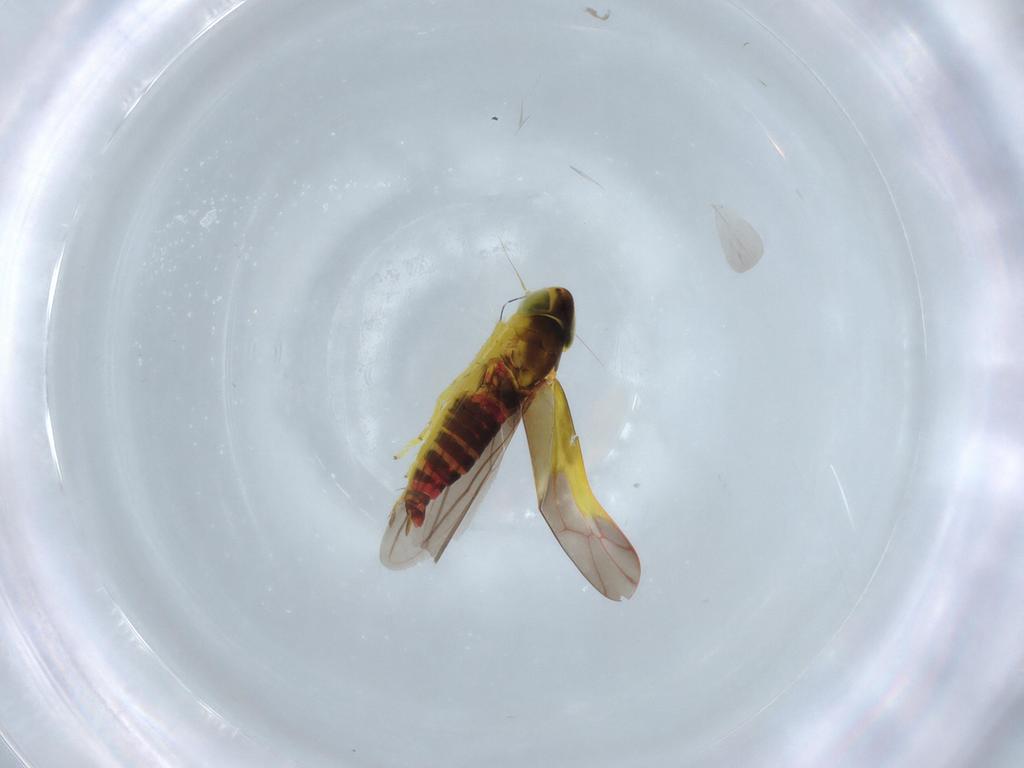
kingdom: Animalia
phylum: Arthropoda
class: Insecta
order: Hemiptera
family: Cicadellidae
